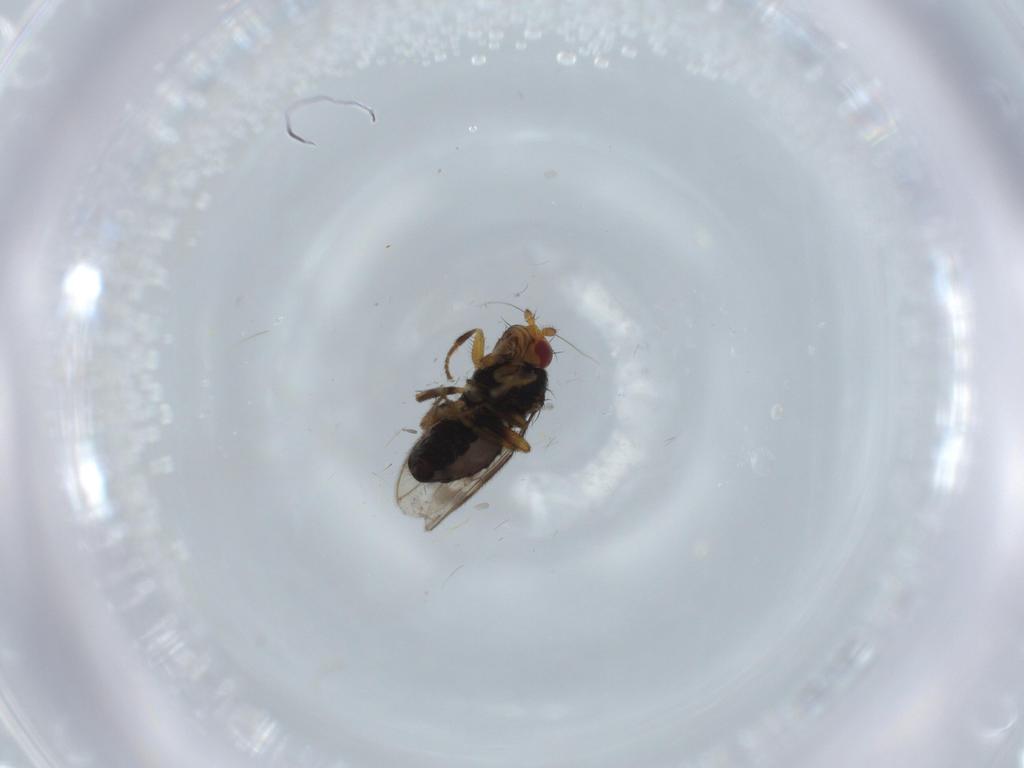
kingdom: Animalia
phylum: Arthropoda
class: Insecta
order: Diptera
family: Sphaeroceridae
